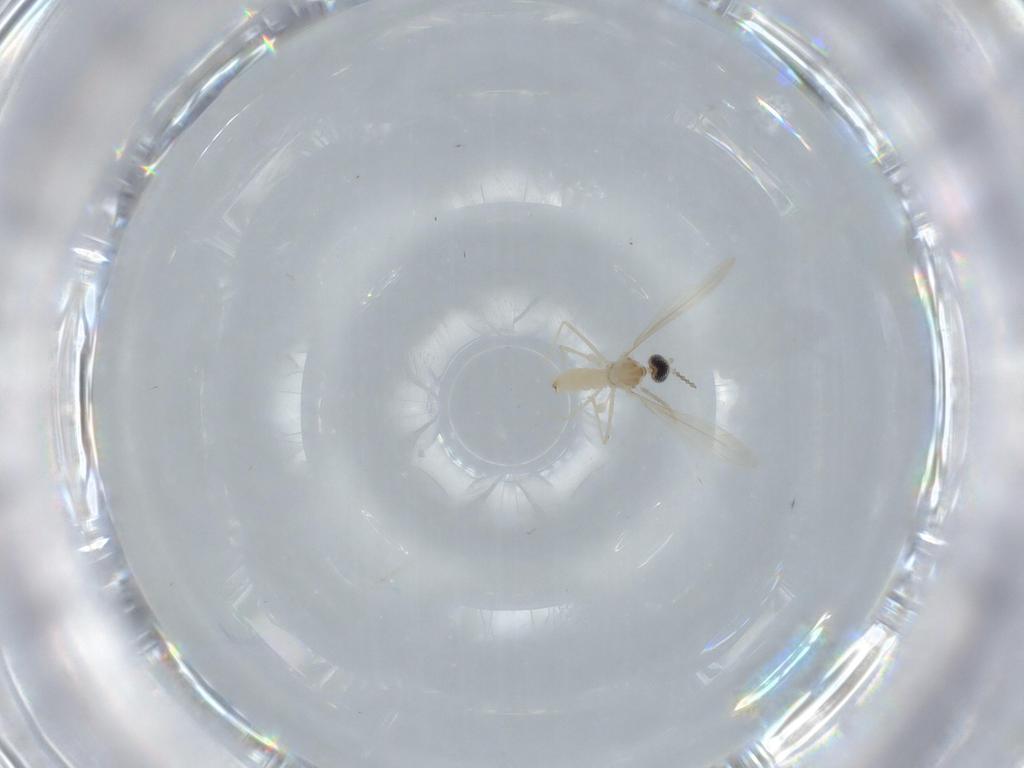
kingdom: Animalia
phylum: Arthropoda
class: Insecta
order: Diptera
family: Cecidomyiidae
